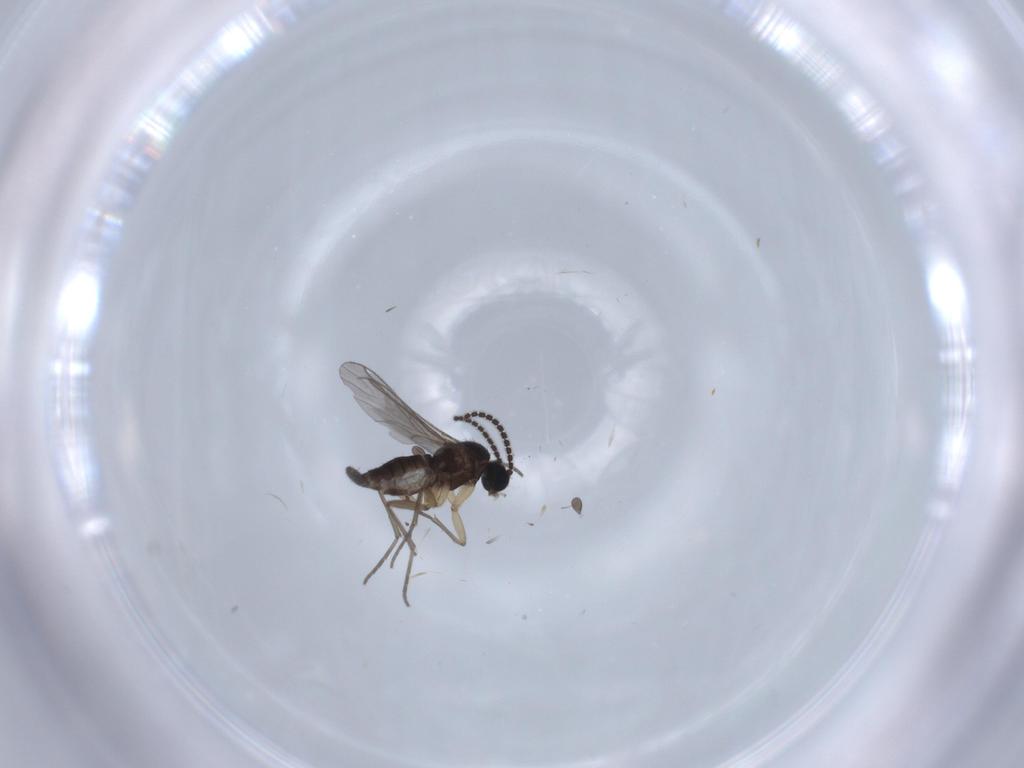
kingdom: Animalia
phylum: Arthropoda
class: Insecta
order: Diptera
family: Sciaridae
